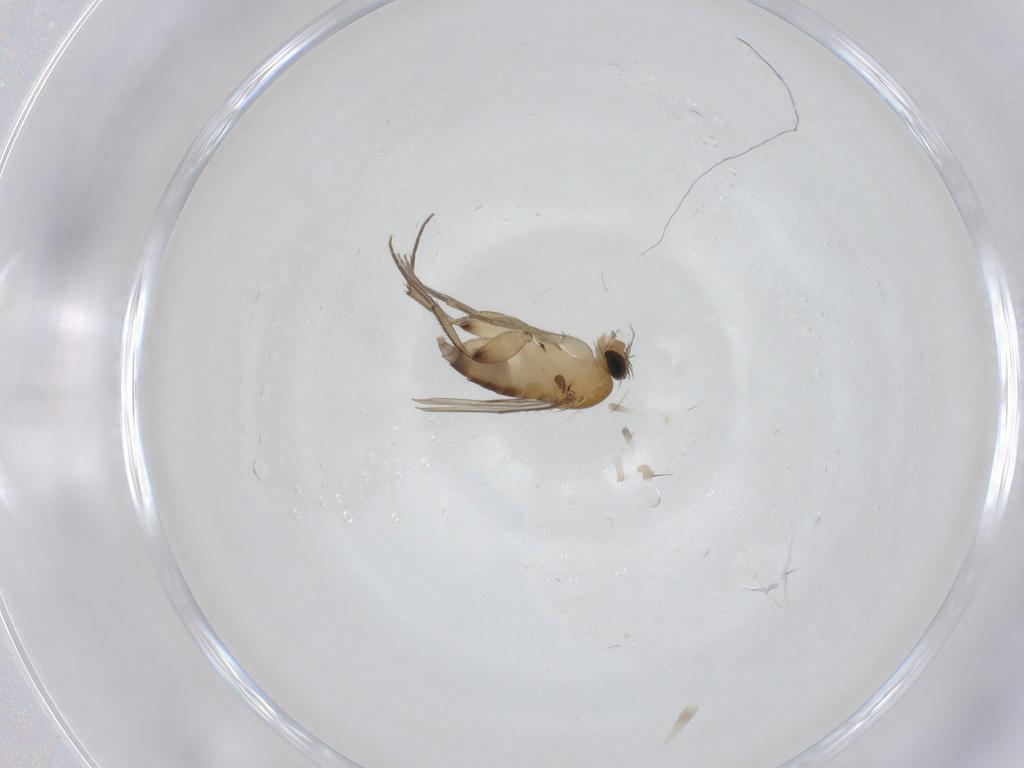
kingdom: Animalia
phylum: Arthropoda
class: Insecta
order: Diptera
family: Phoridae
